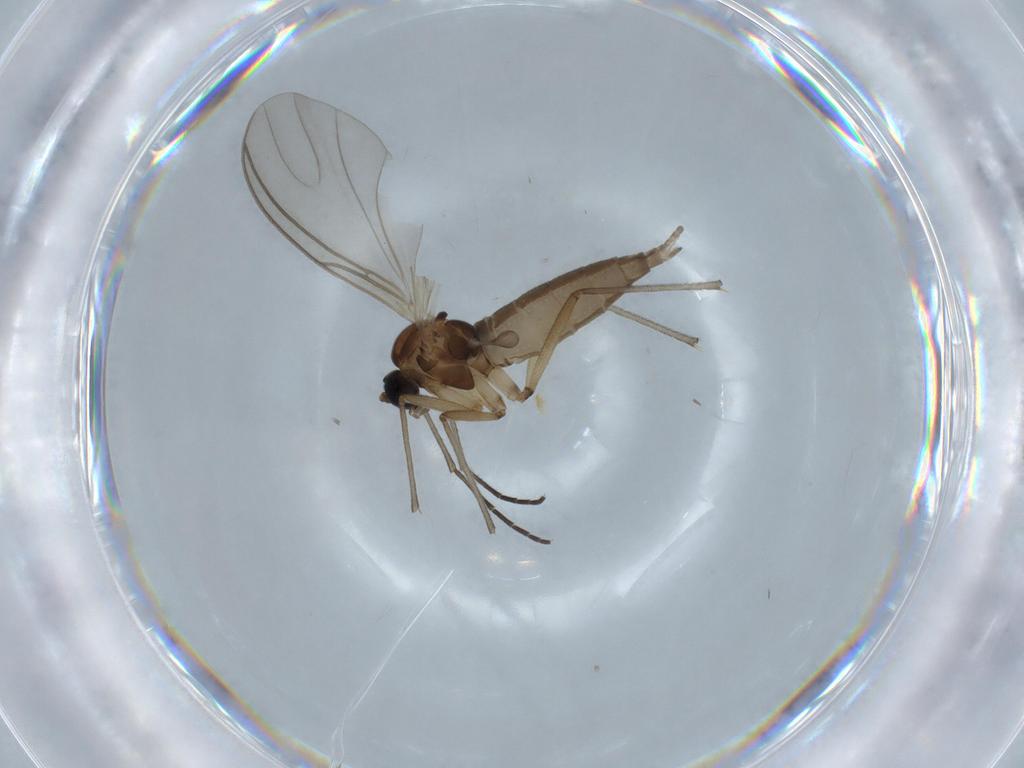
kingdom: Animalia
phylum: Arthropoda
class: Insecta
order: Diptera
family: Sciaridae
